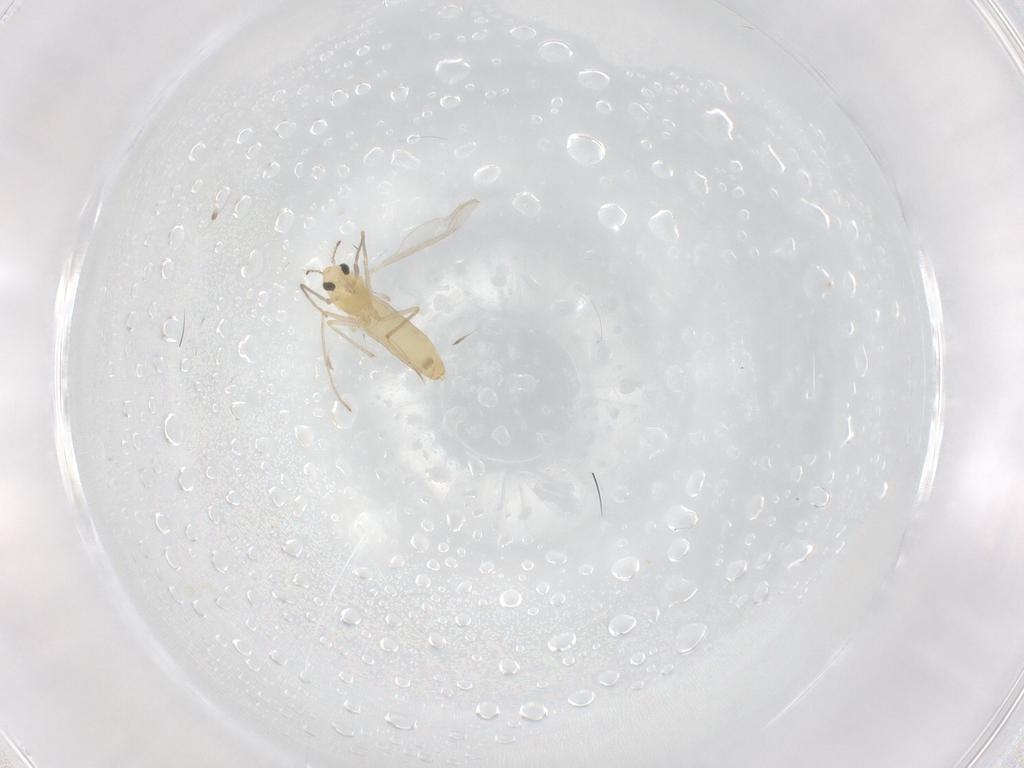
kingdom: Animalia
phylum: Arthropoda
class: Insecta
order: Diptera
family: Chironomidae
